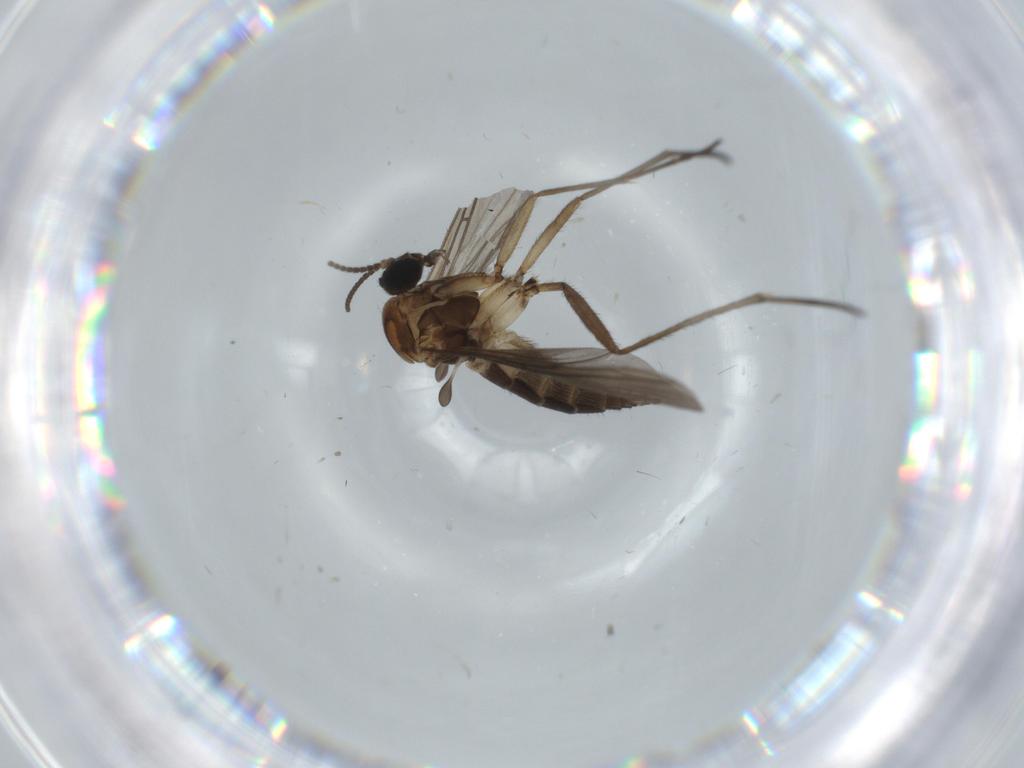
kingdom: Animalia
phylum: Arthropoda
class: Insecta
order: Diptera
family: Sciaridae
